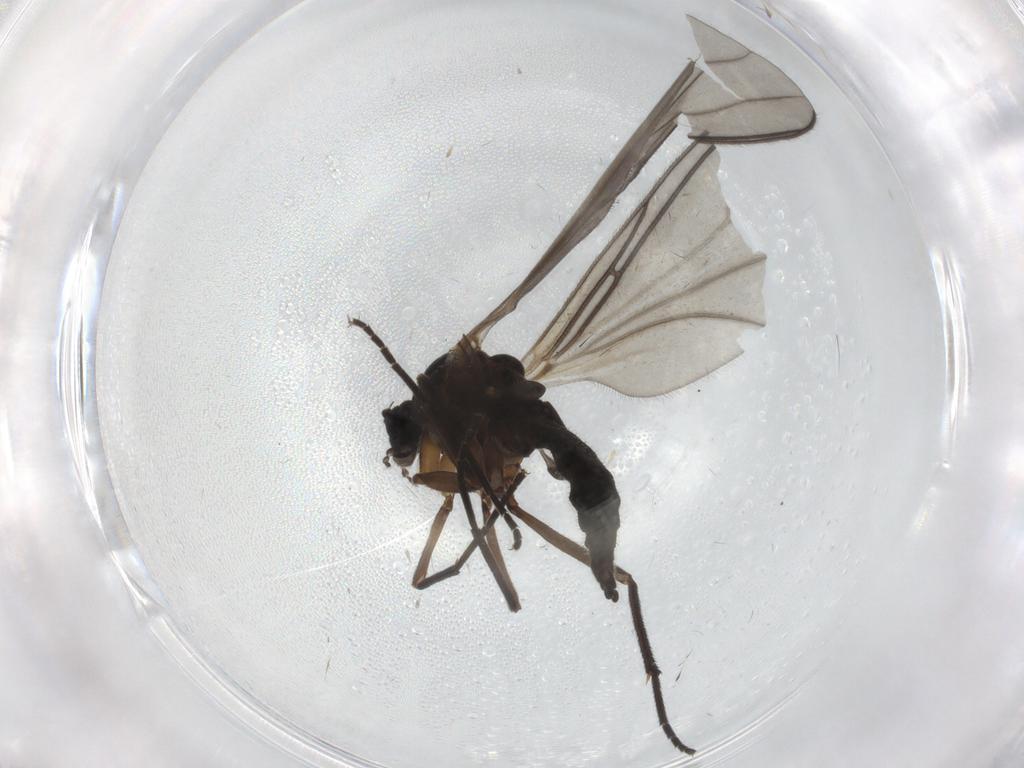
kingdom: Animalia
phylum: Arthropoda
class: Insecta
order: Diptera
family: Sciaridae
